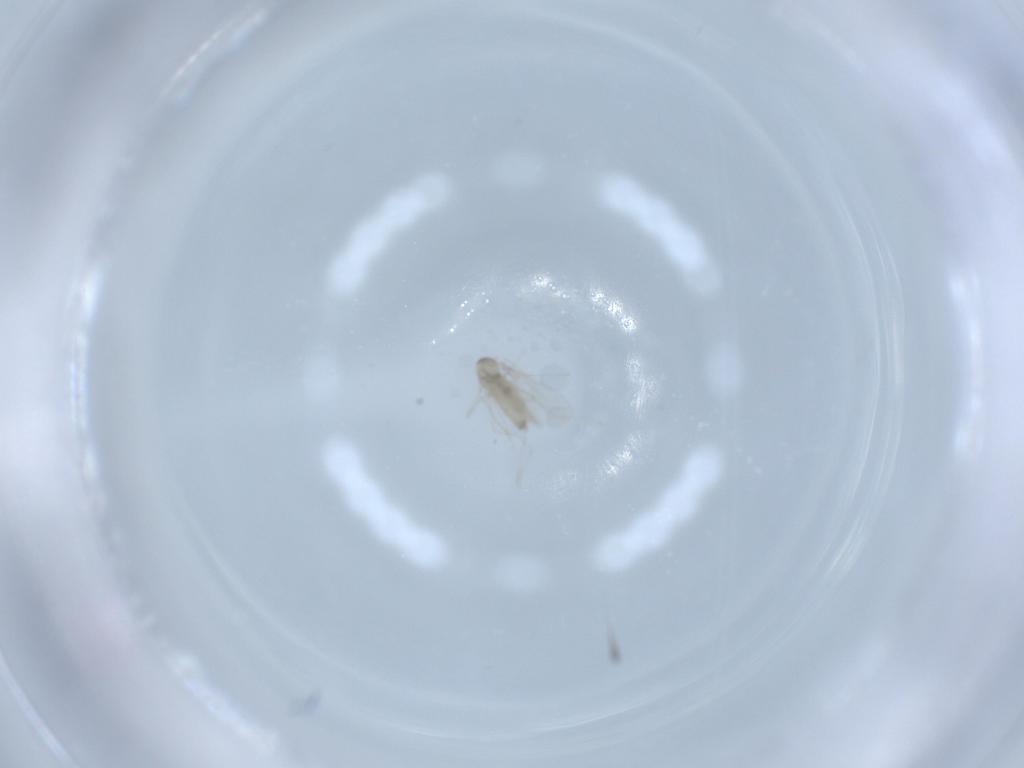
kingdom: Animalia
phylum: Arthropoda
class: Insecta
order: Diptera
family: Cecidomyiidae
